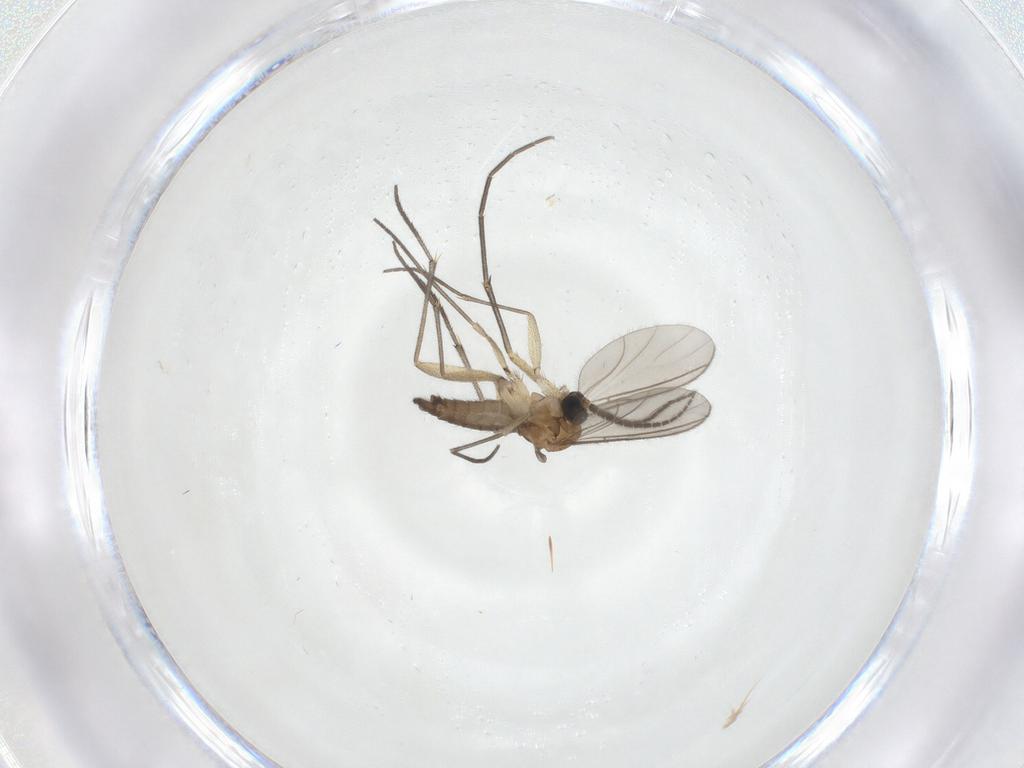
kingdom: Animalia
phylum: Arthropoda
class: Insecta
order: Diptera
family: Sciaridae
